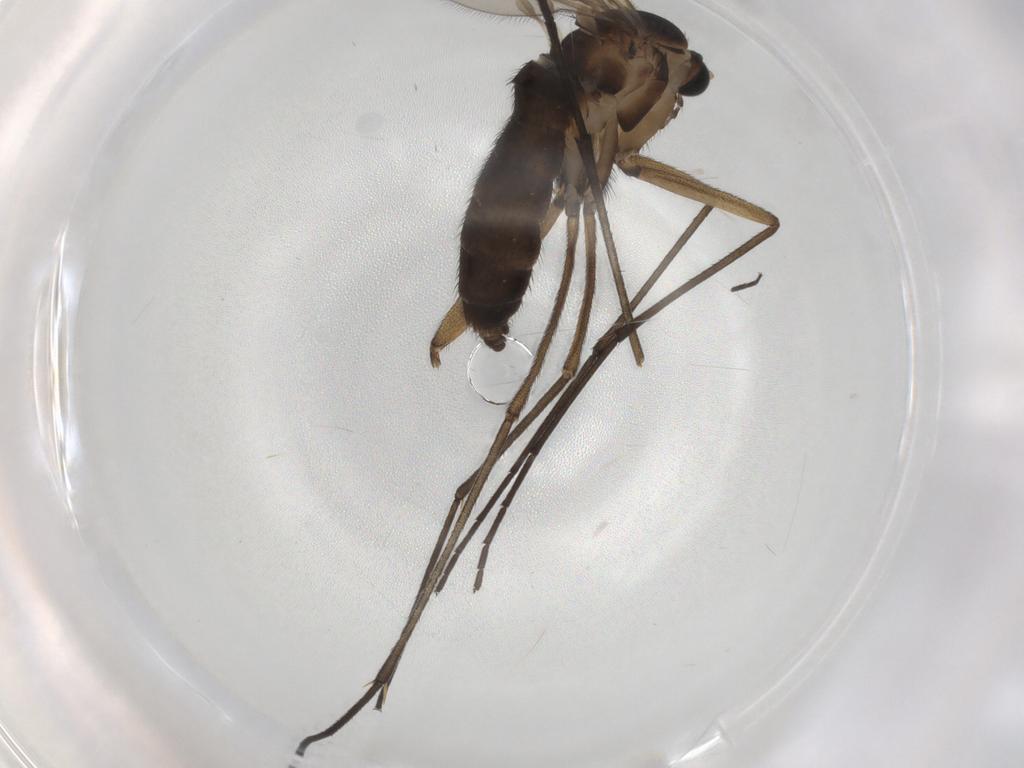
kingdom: Animalia
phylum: Arthropoda
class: Insecta
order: Diptera
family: Sciaridae
